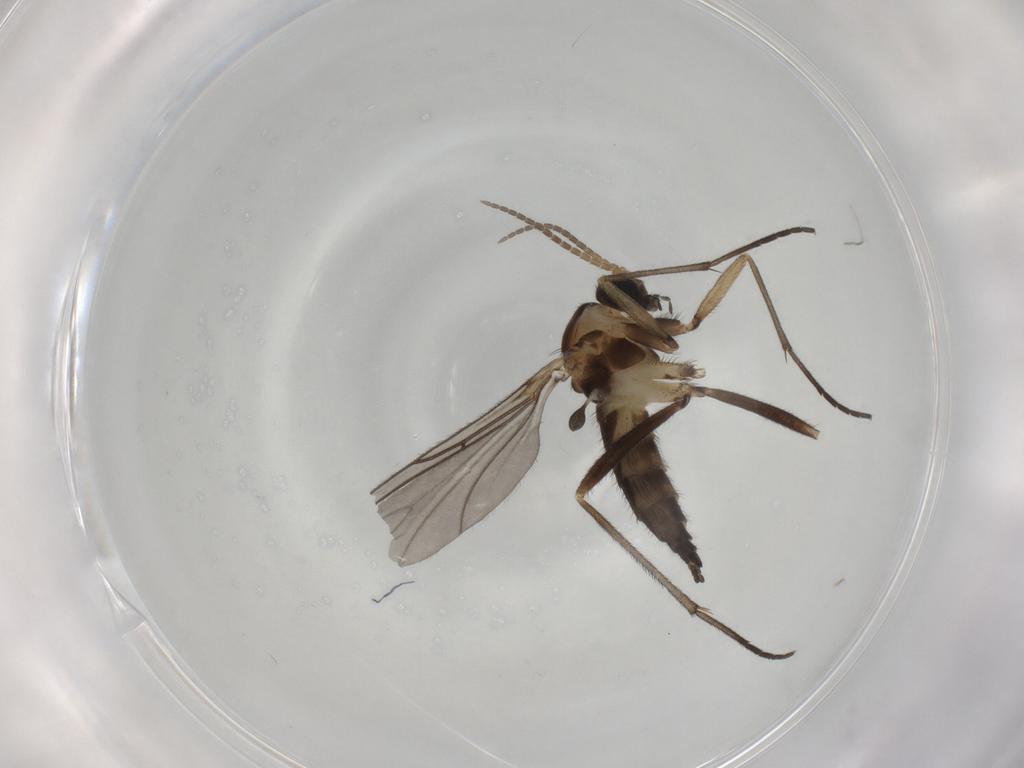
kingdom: Animalia
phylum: Arthropoda
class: Insecta
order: Diptera
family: Sciaridae
